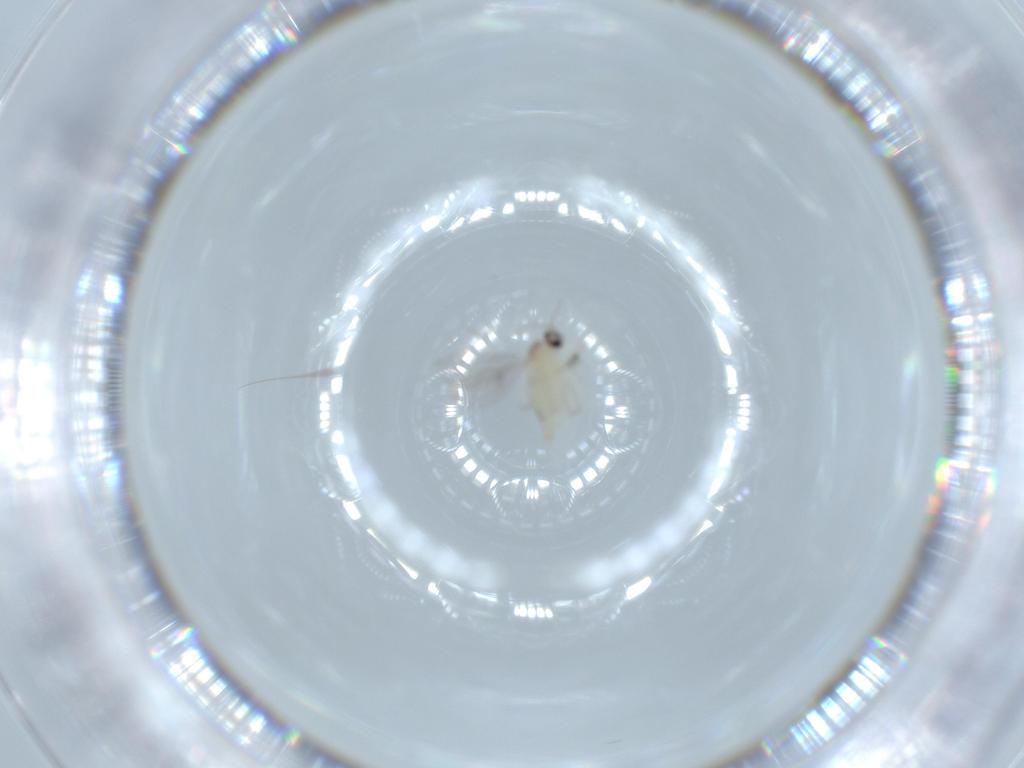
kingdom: Animalia
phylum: Arthropoda
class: Insecta
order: Diptera
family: Cecidomyiidae
